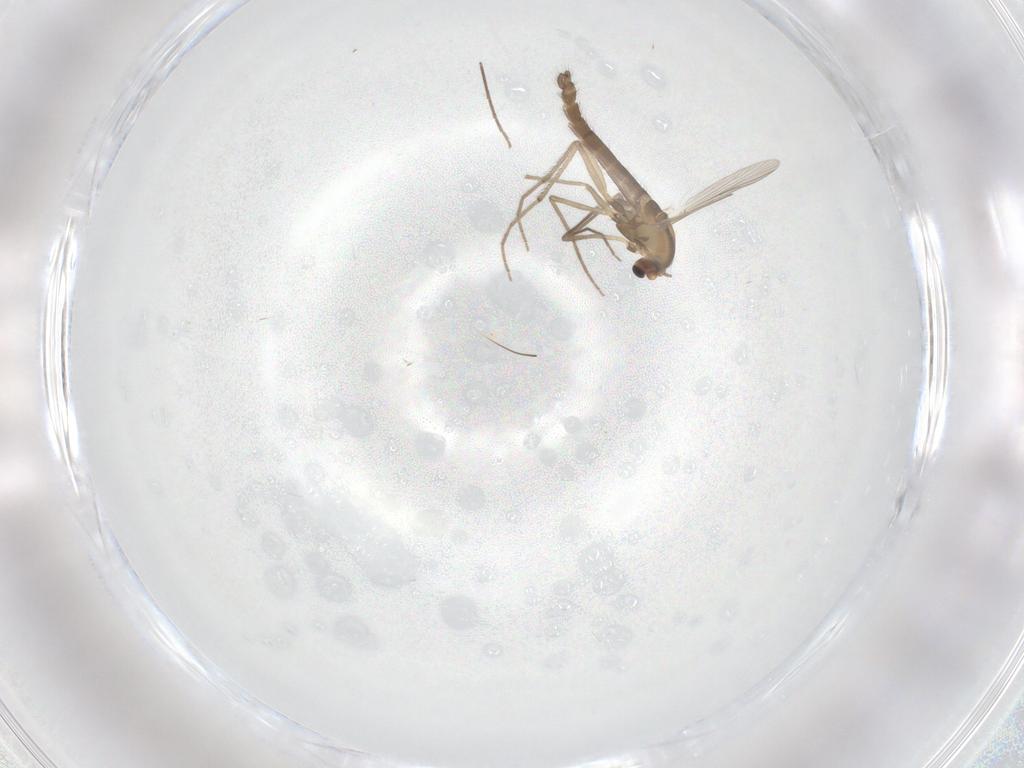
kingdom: Animalia
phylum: Arthropoda
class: Insecta
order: Diptera
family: Chironomidae
